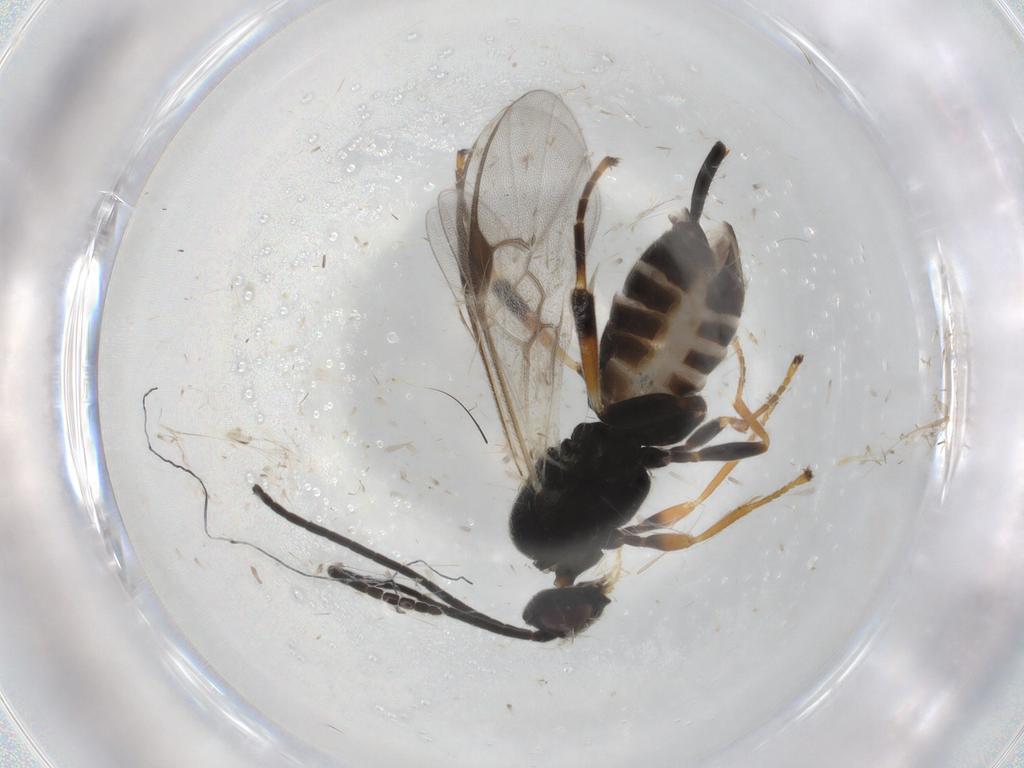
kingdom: Animalia
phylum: Arthropoda
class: Insecta
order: Hymenoptera
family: Braconidae
